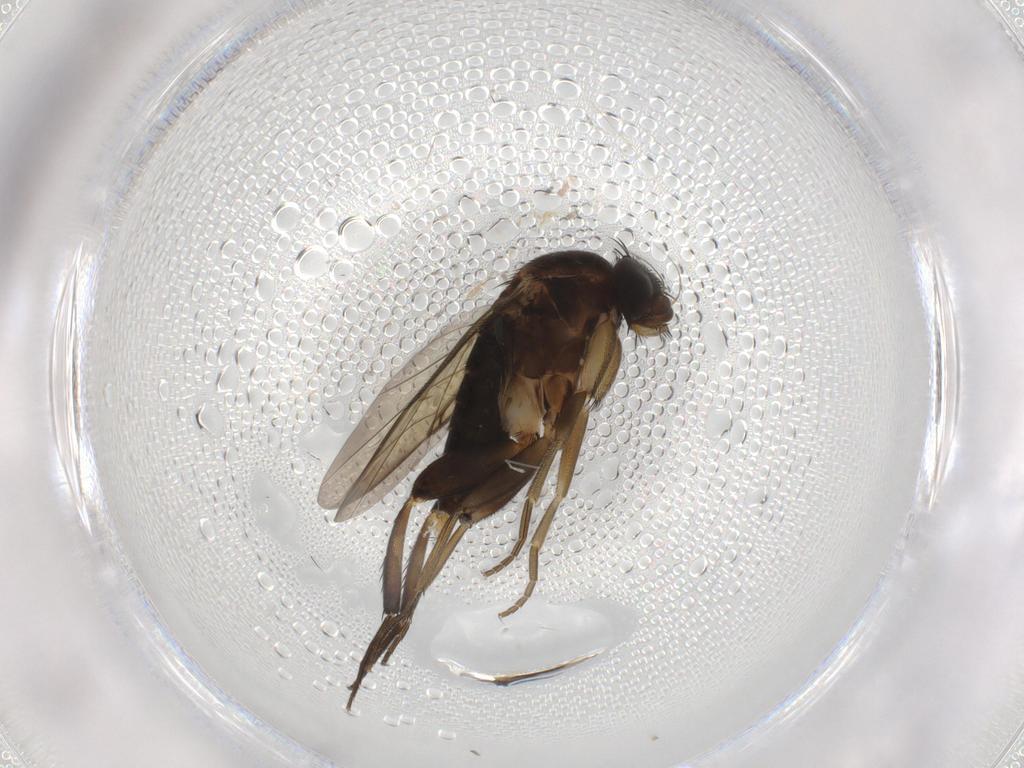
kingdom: Animalia
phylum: Arthropoda
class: Insecta
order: Diptera
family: Phoridae
